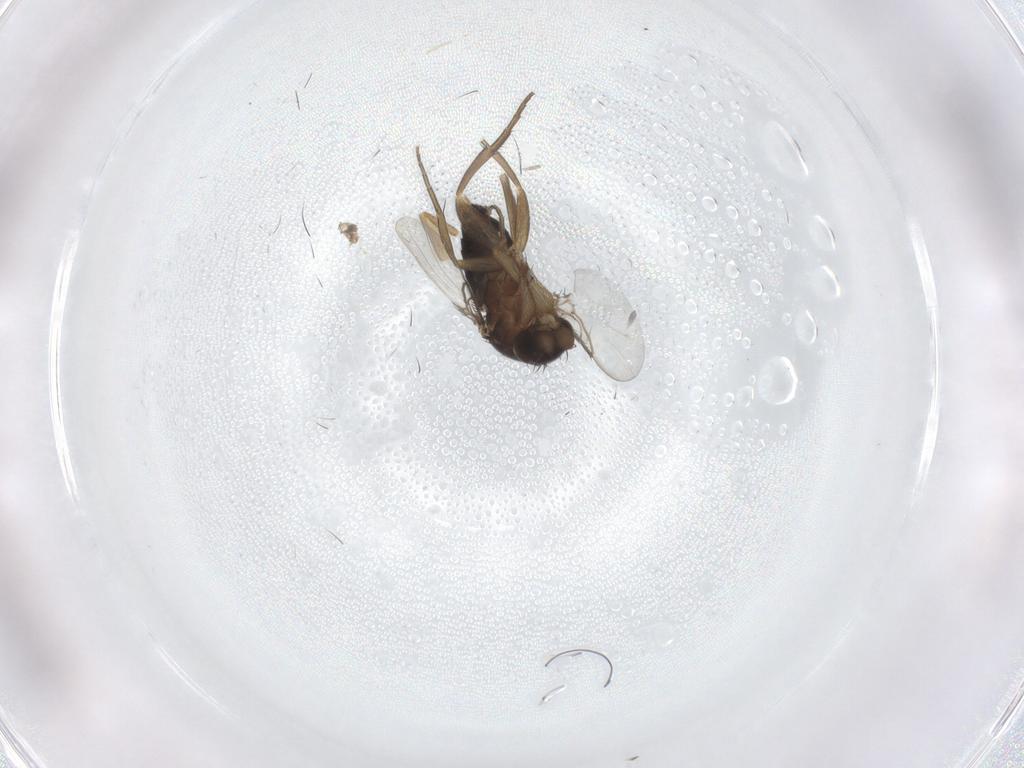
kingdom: Animalia
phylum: Arthropoda
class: Insecta
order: Diptera
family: Phoridae
